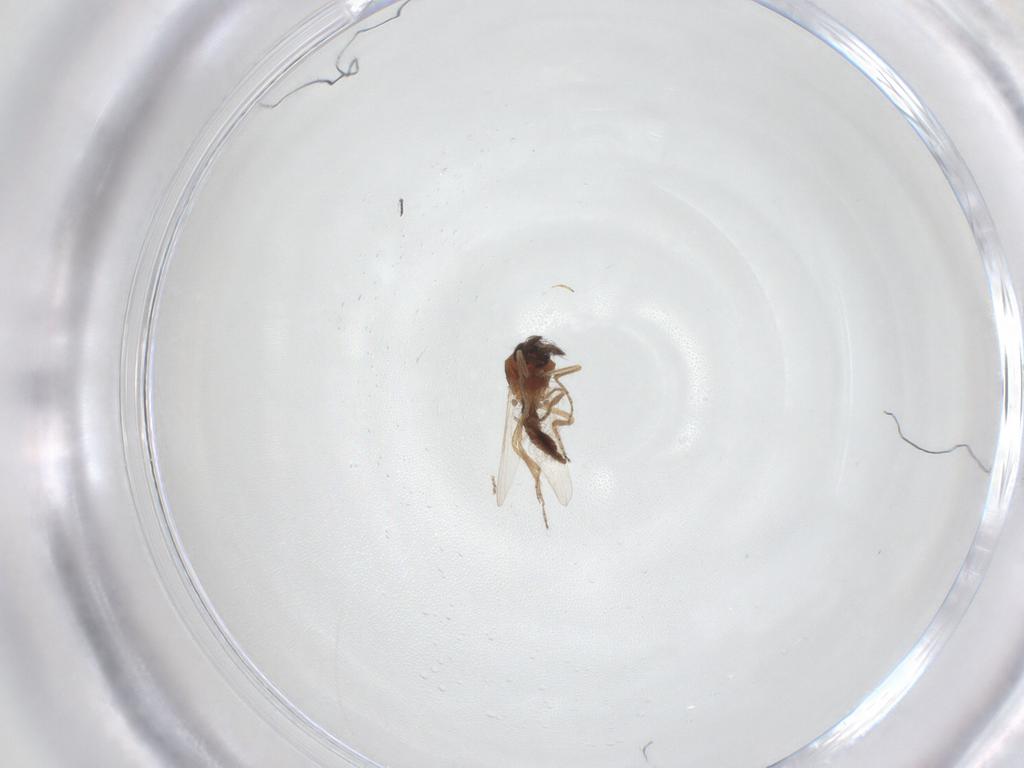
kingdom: Animalia
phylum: Arthropoda
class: Insecta
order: Diptera
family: Ceratopogonidae
